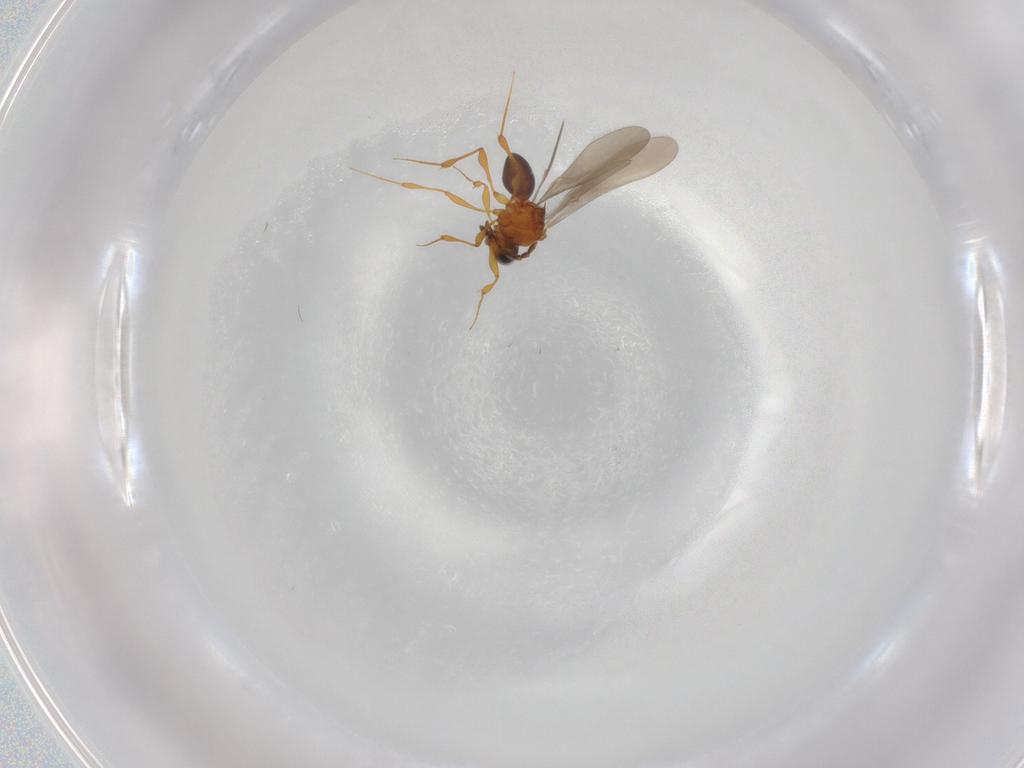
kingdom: Animalia
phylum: Arthropoda
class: Insecta
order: Hymenoptera
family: Platygastridae
